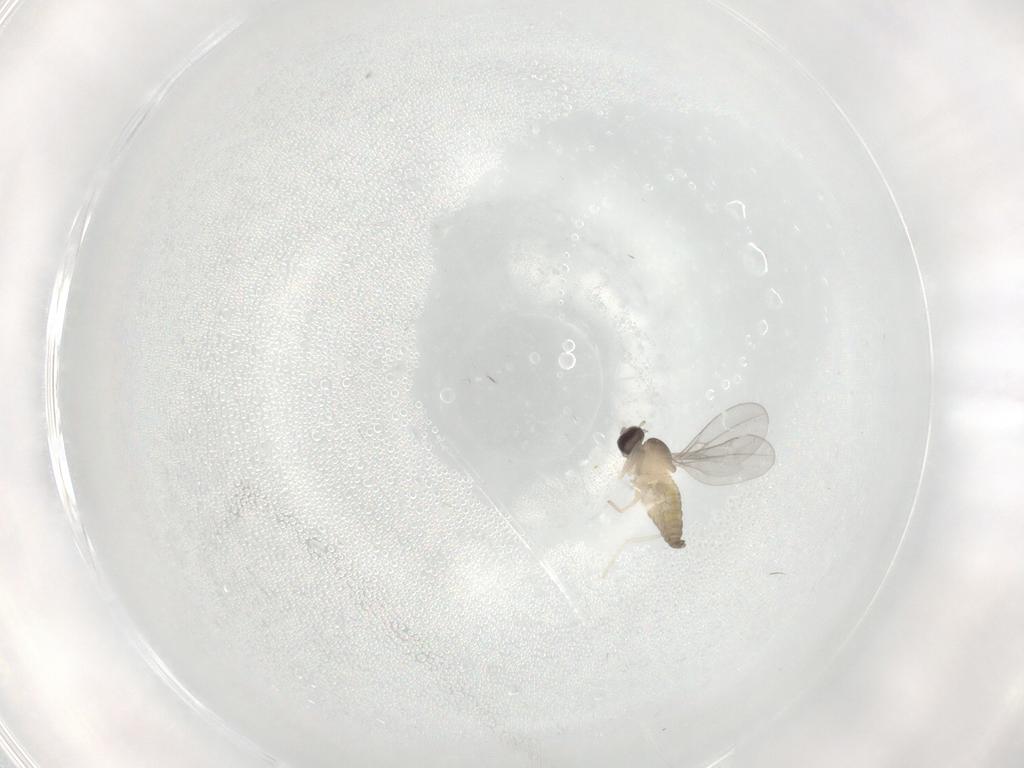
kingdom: Animalia
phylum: Arthropoda
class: Insecta
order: Diptera
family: Cecidomyiidae
